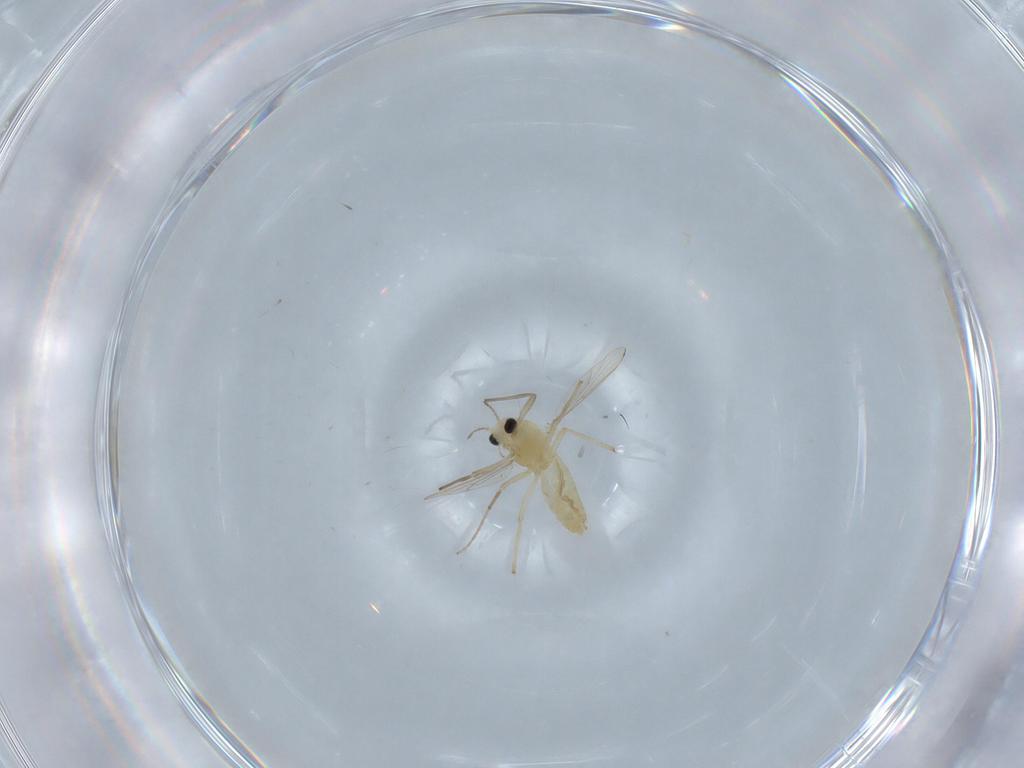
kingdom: Animalia
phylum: Arthropoda
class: Insecta
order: Diptera
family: Chironomidae
